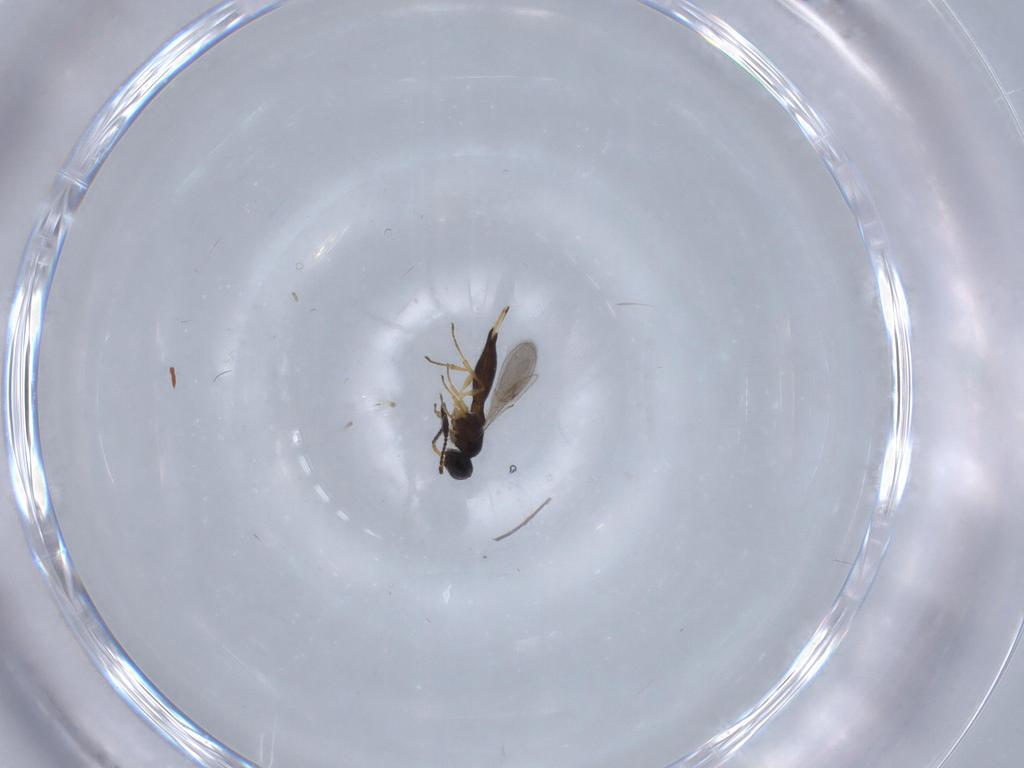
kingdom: Animalia
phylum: Arthropoda
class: Insecta
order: Hymenoptera
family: Scelionidae
